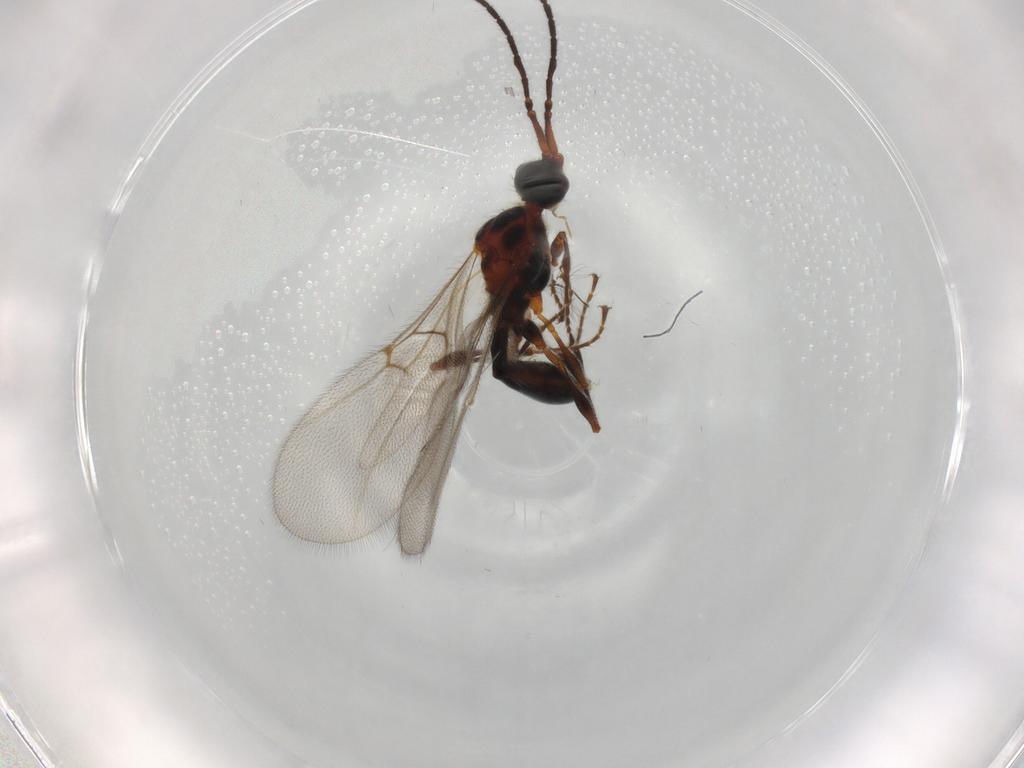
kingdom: Animalia
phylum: Arthropoda
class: Insecta
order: Hymenoptera
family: Diapriidae
